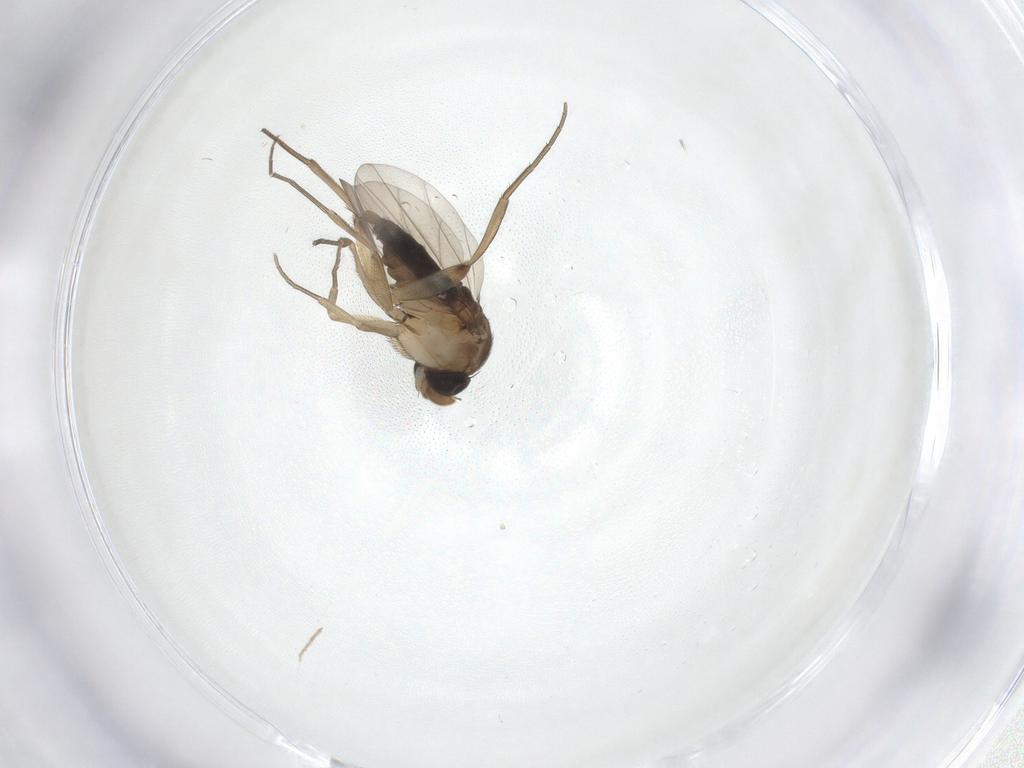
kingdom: Animalia
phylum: Arthropoda
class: Insecta
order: Diptera
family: Phoridae
